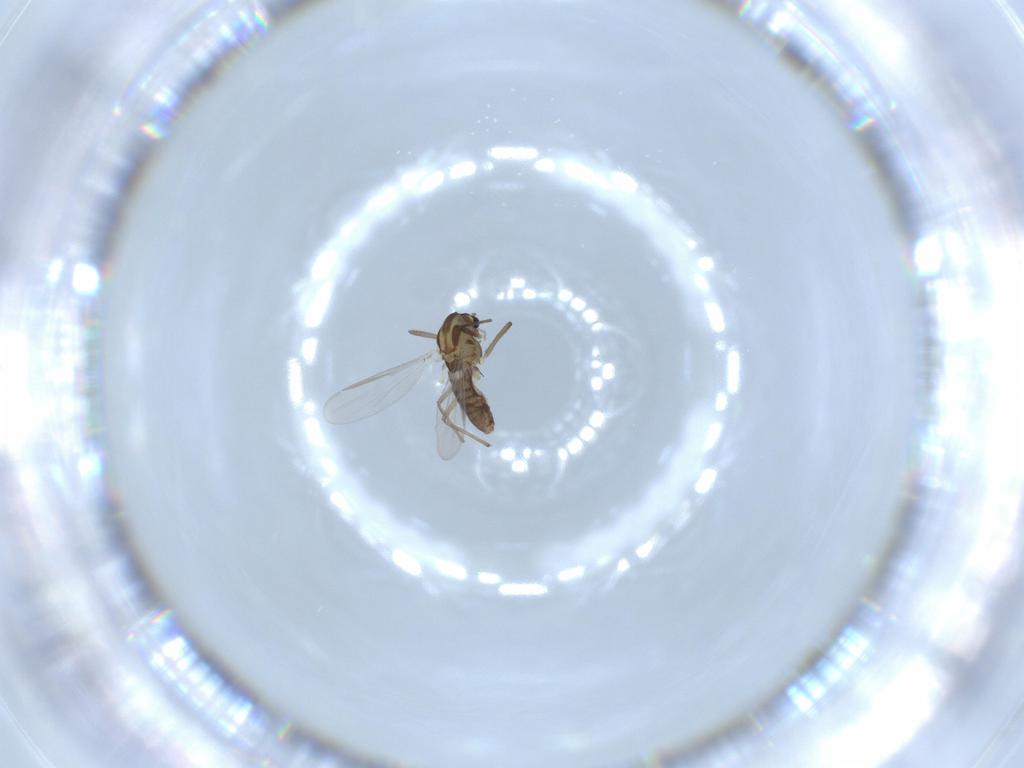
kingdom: Animalia
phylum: Arthropoda
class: Insecta
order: Diptera
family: Chironomidae
